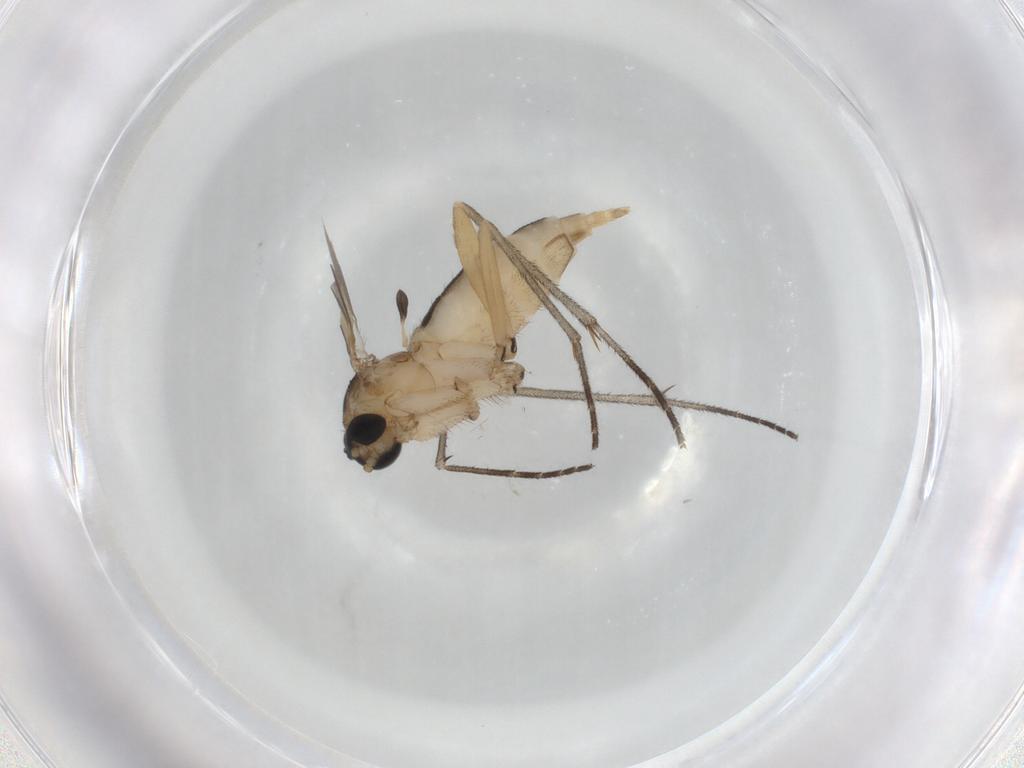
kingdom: Animalia
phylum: Arthropoda
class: Insecta
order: Diptera
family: Sciaridae
